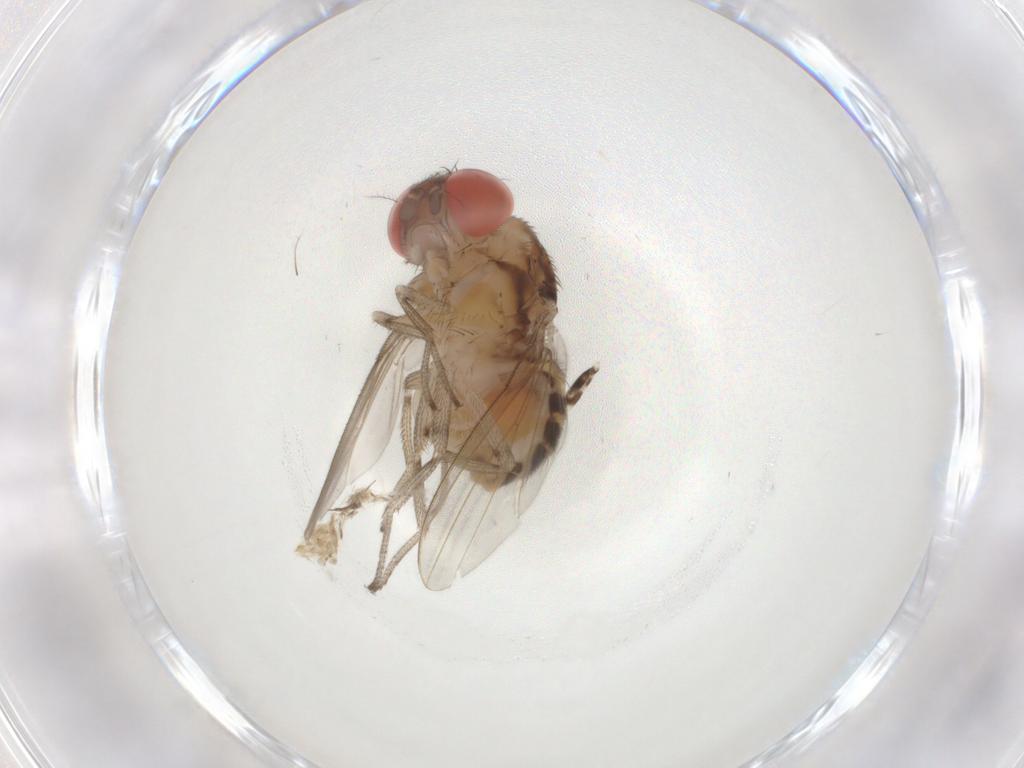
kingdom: Animalia
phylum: Arthropoda
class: Insecta
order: Diptera
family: Drosophilidae
